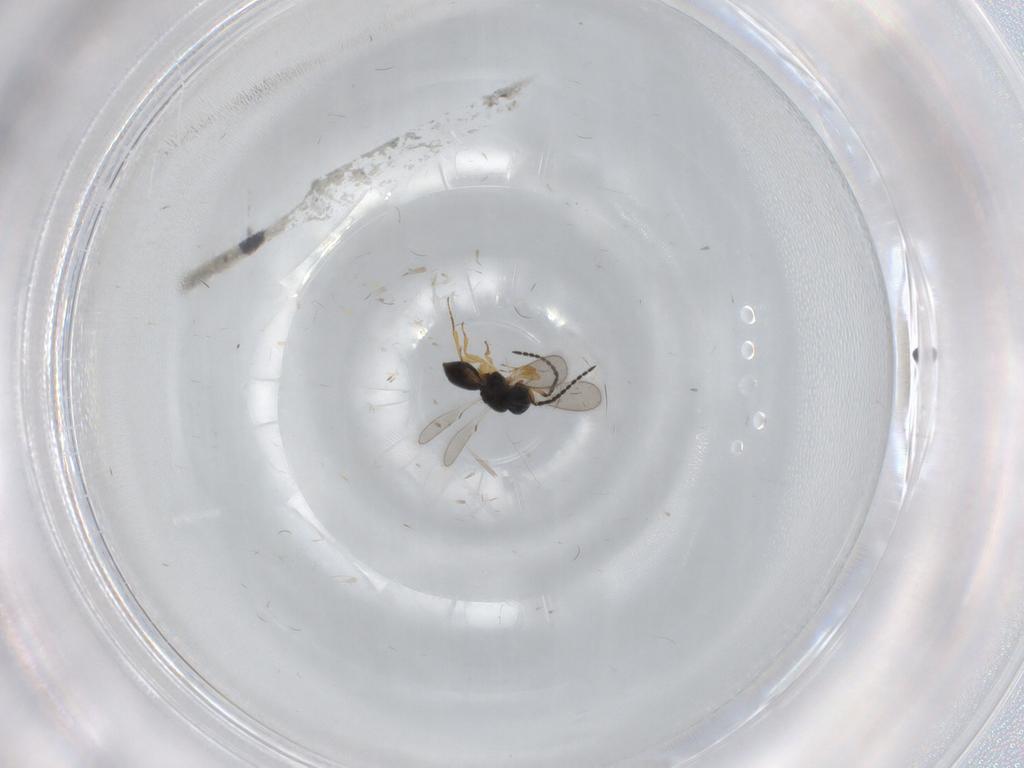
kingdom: Animalia
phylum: Arthropoda
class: Insecta
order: Hymenoptera
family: Scelionidae
